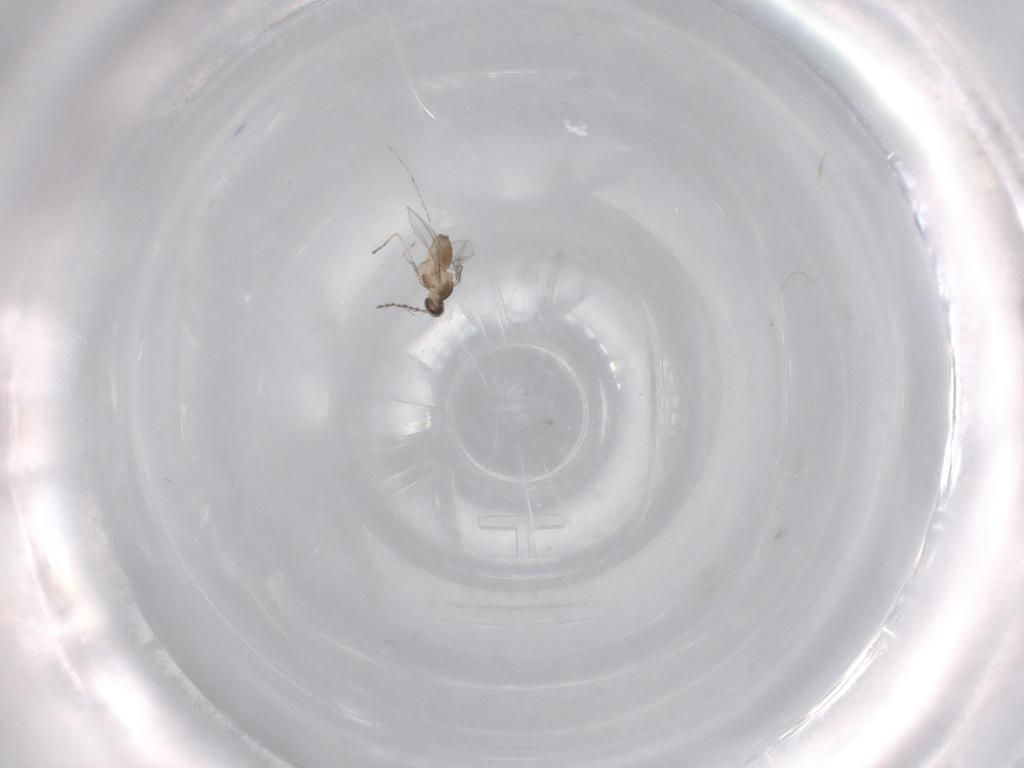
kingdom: Animalia
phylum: Arthropoda
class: Insecta
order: Diptera
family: Cecidomyiidae
